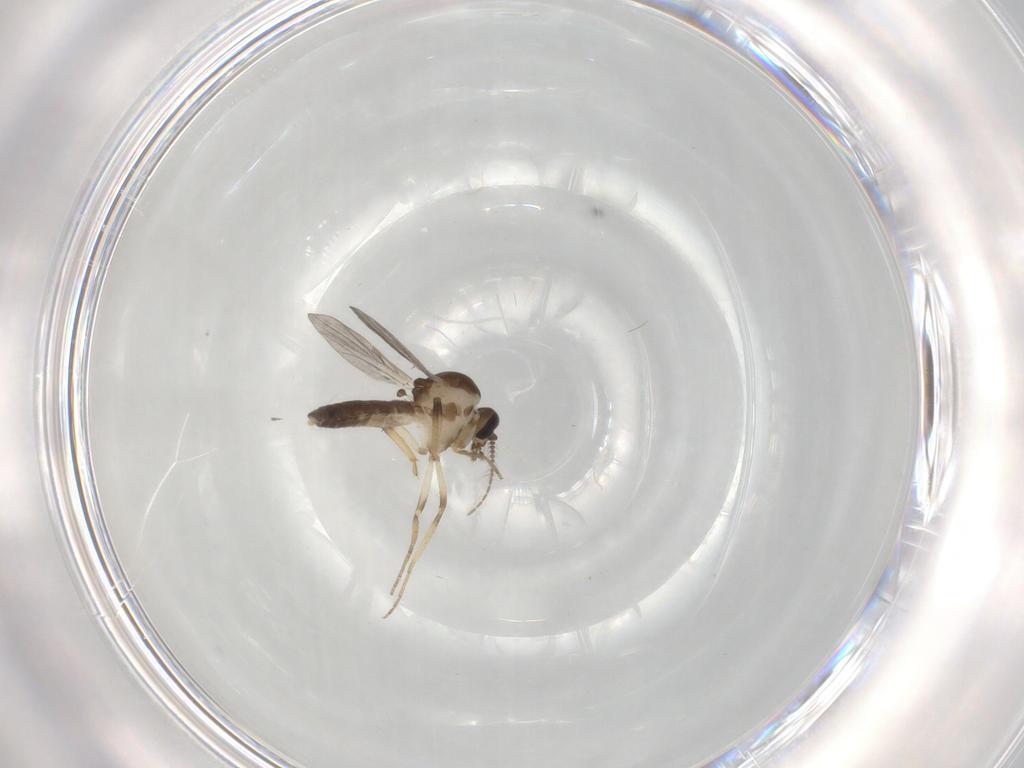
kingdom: Animalia
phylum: Arthropoda
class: Insecta
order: Diptera
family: Ceratopogonidae
